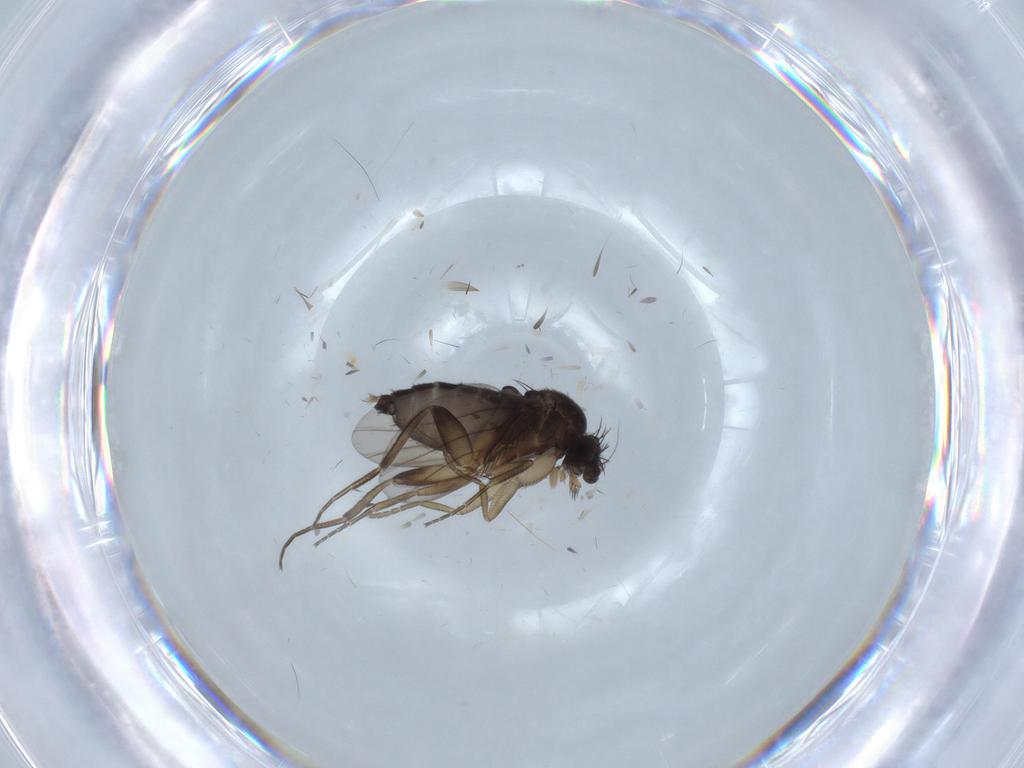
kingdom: Animalia
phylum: Arthropoda
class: Insecta
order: Diptera
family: Phoridae
